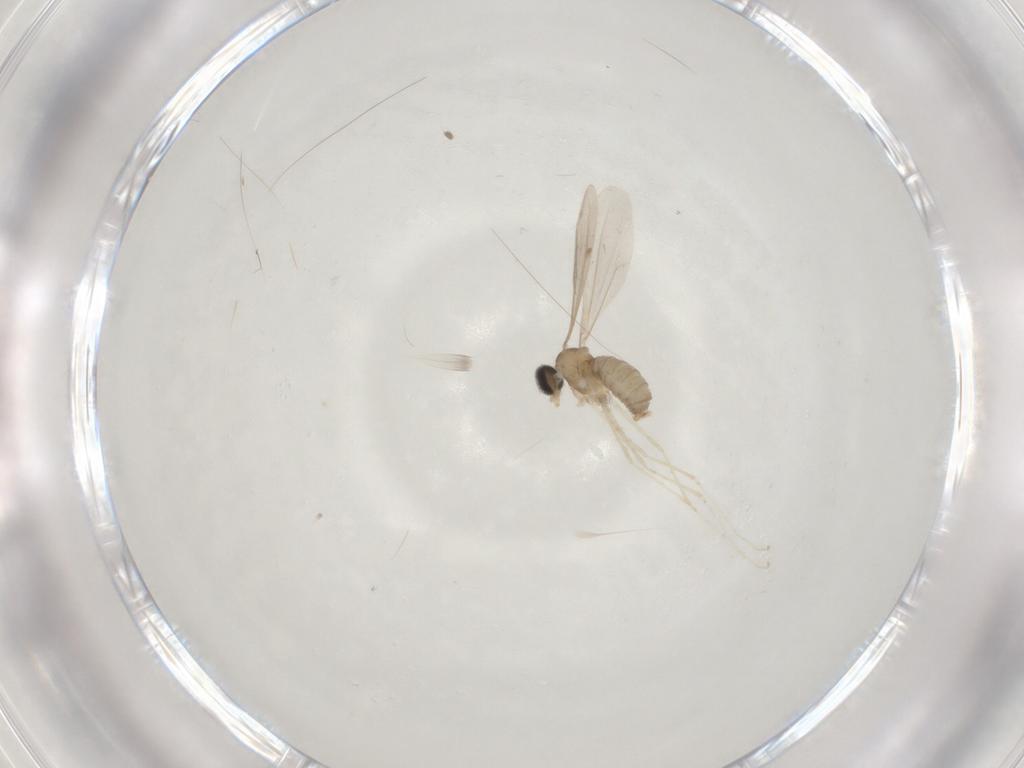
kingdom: Animalia
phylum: Arthropoda
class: Insecta
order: Diptera
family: Cecidomyiidae
